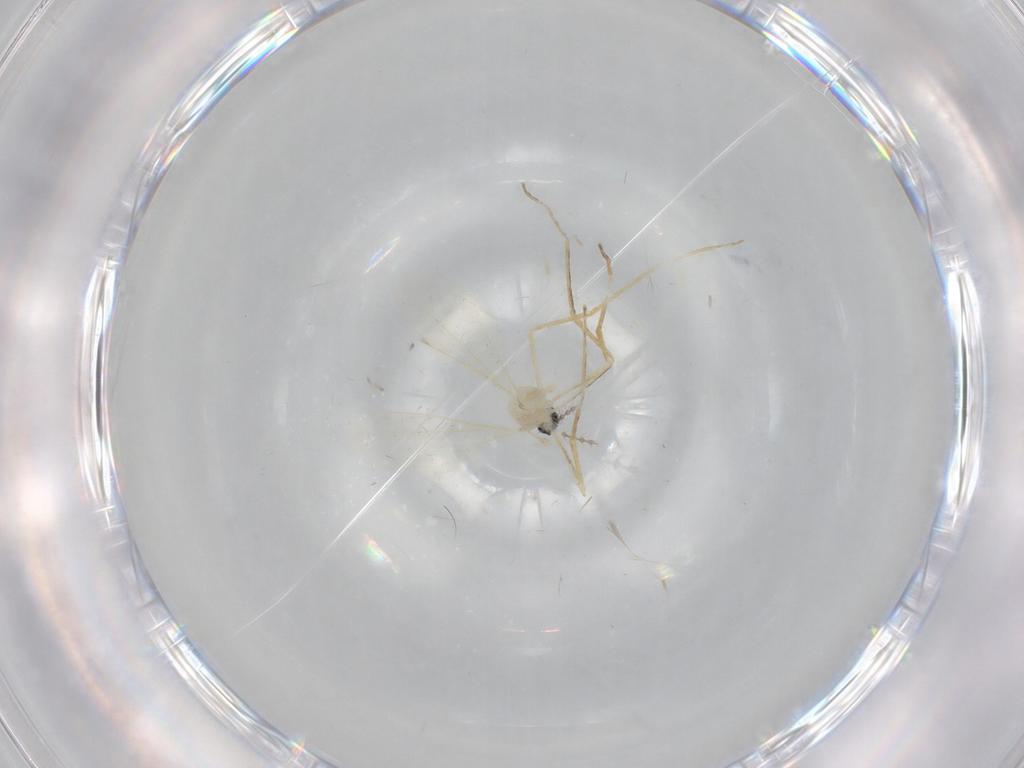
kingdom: Animalia
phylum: Arthropoda
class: Insecta
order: Diptera
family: Cecidomyiidae
